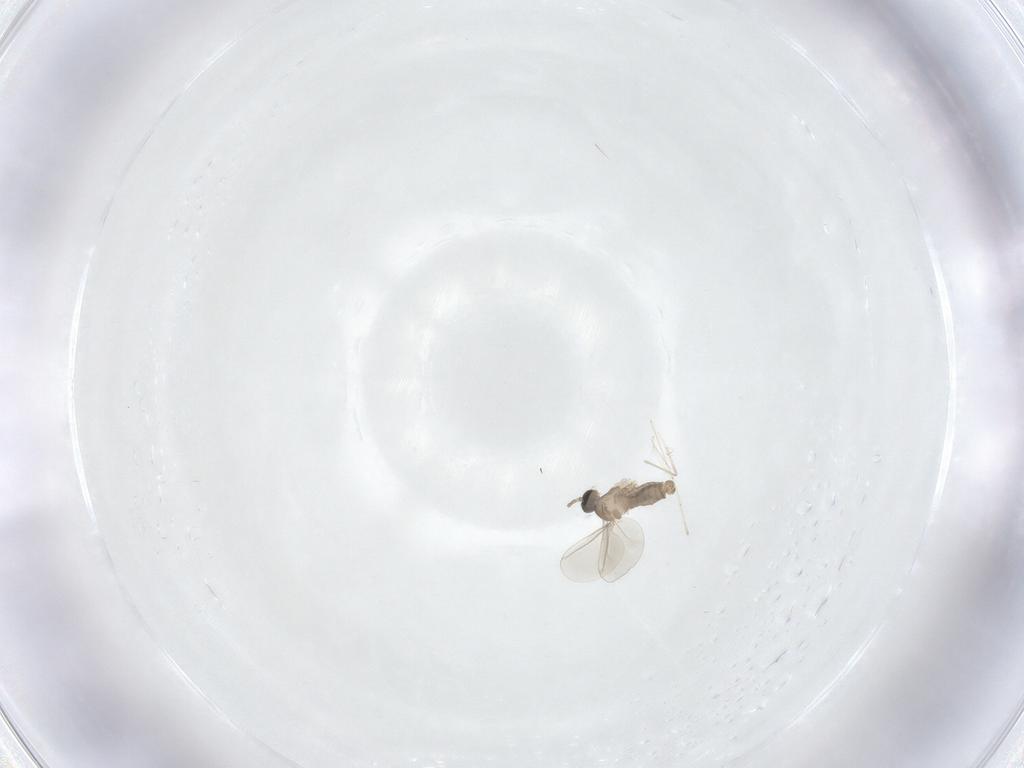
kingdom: Animalia
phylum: Arthropoda
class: Insecta
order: Diptera
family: Cecidomyiidae
